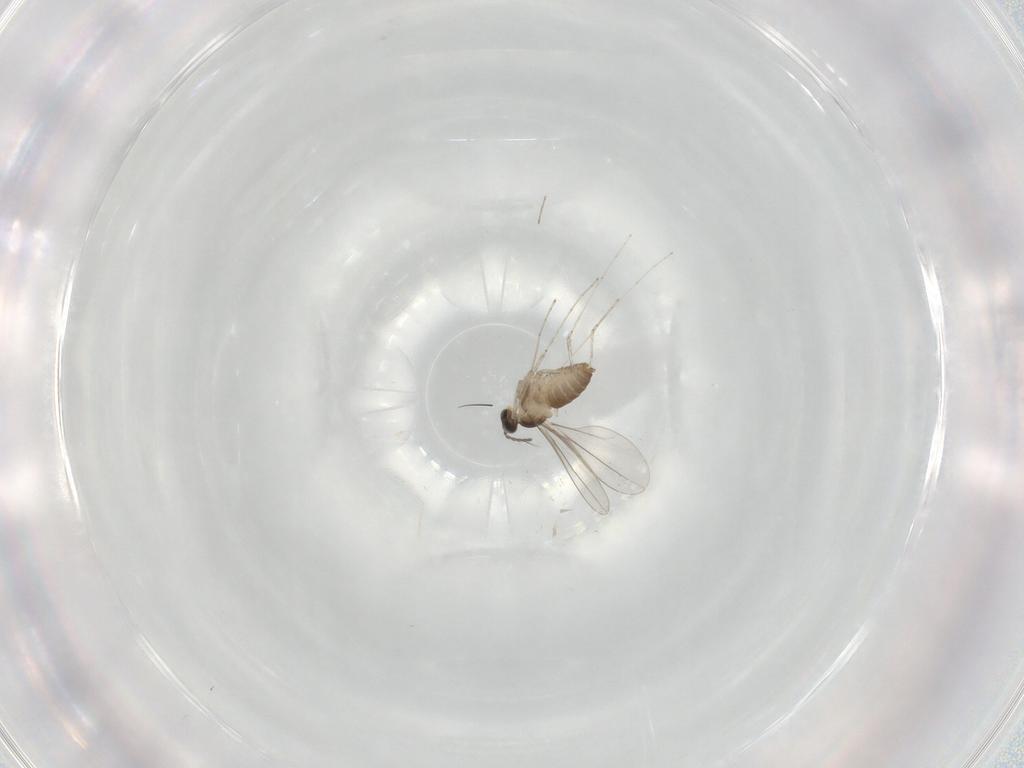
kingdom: Animalia
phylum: Arthropoda
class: Insecta
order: Diptera
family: Cecidomyiidae
